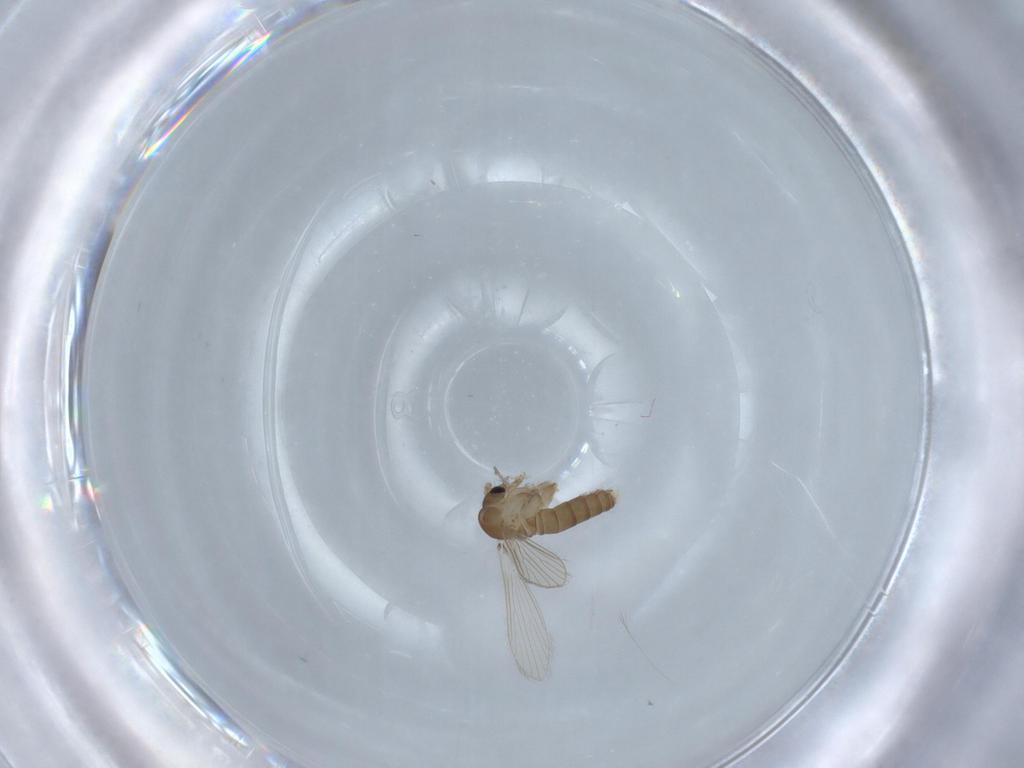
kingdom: Animalia
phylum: Arthropoda
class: Insecta
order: Diptera
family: Psychodidae
